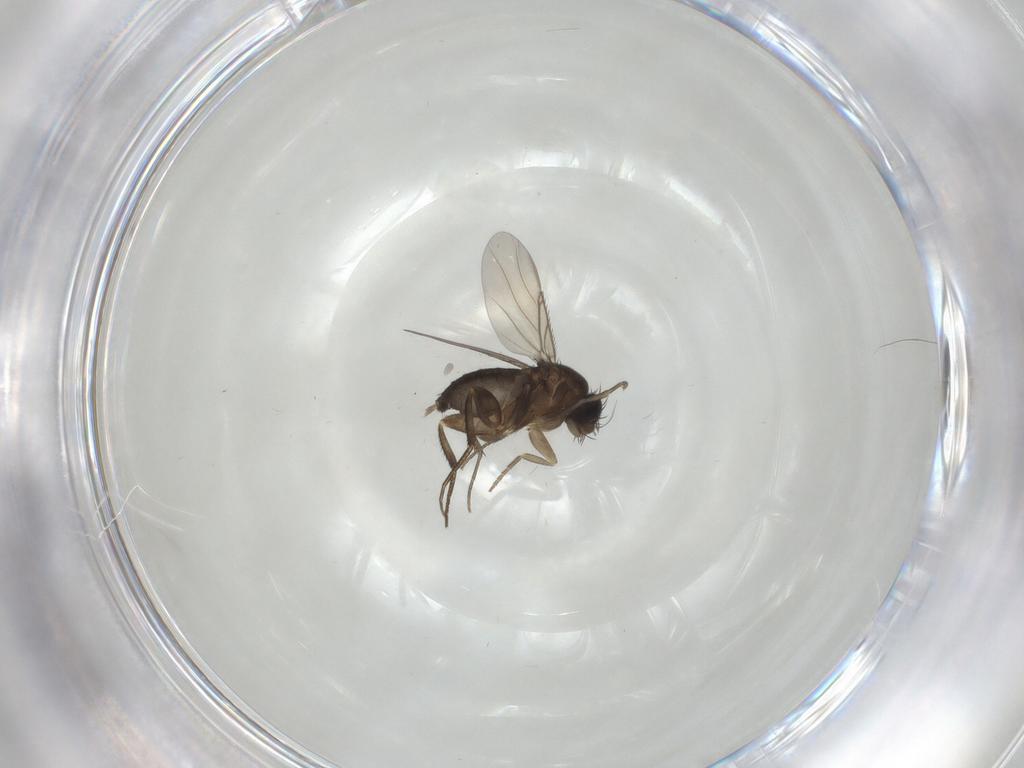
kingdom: Animalia
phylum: Arthropoda
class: Insecta
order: Diptera
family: Phoridae
